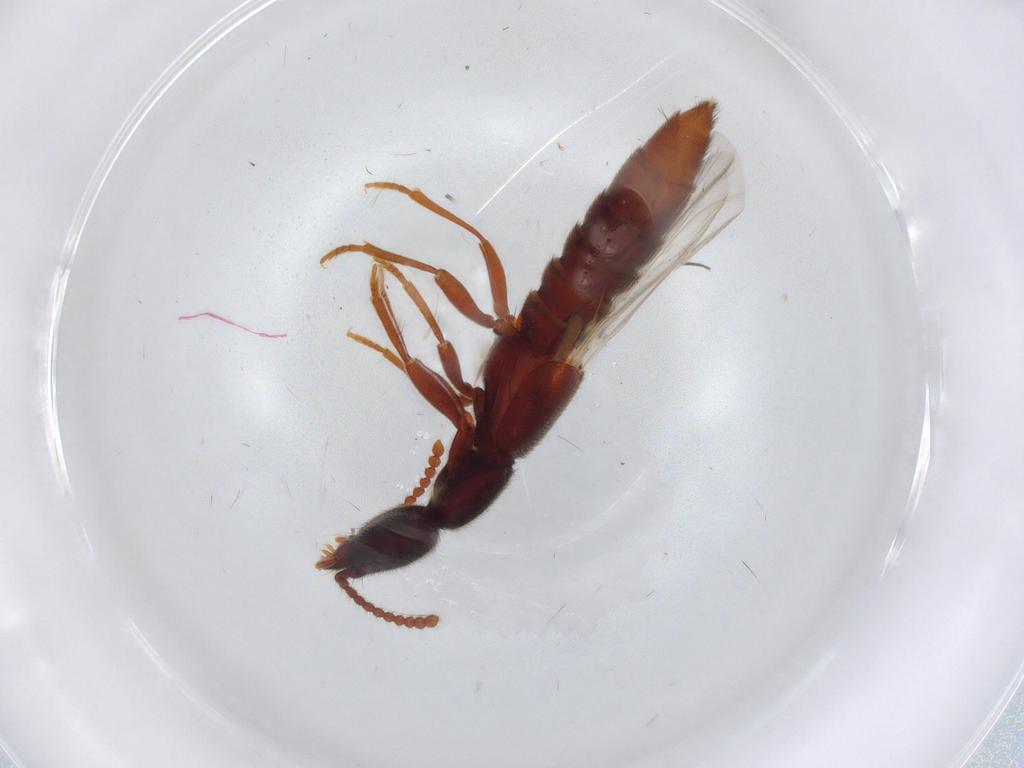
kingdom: Animalia
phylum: Arthropoda
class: Insecta
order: Coleoptera
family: Staphylinidae
